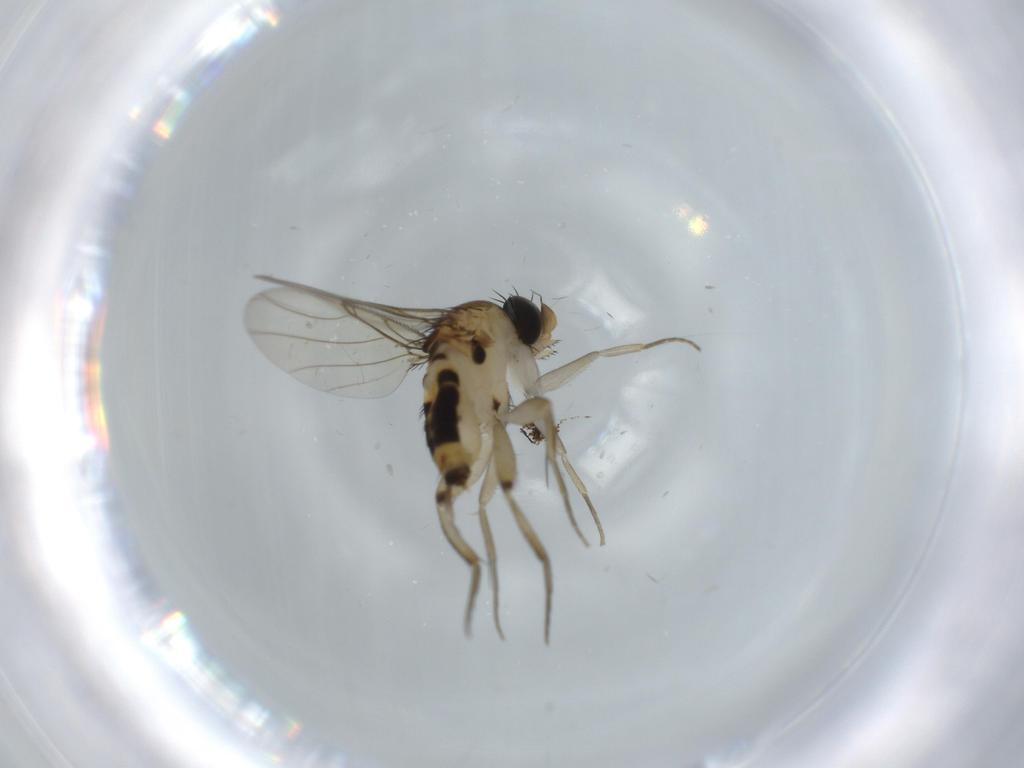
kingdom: Animalia
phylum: Arthropoda
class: Insecta
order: Diptera
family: Phoridae
